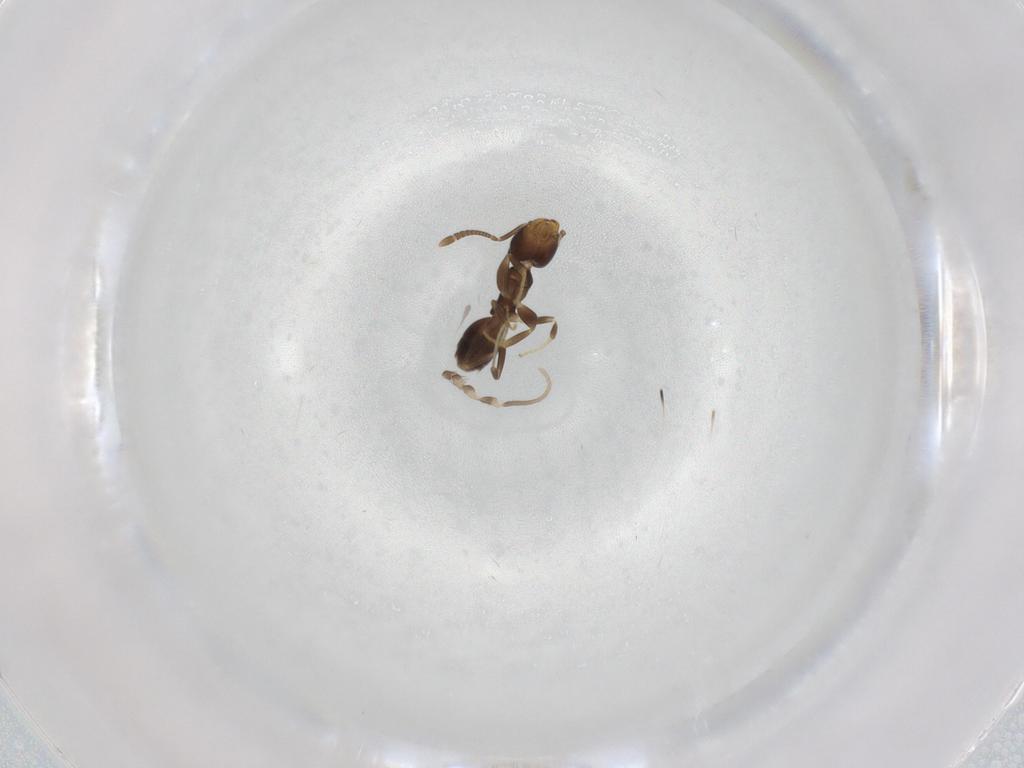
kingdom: Animalia
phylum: Arthropoda
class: Insecta
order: Hymenoptera
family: Formicidae
